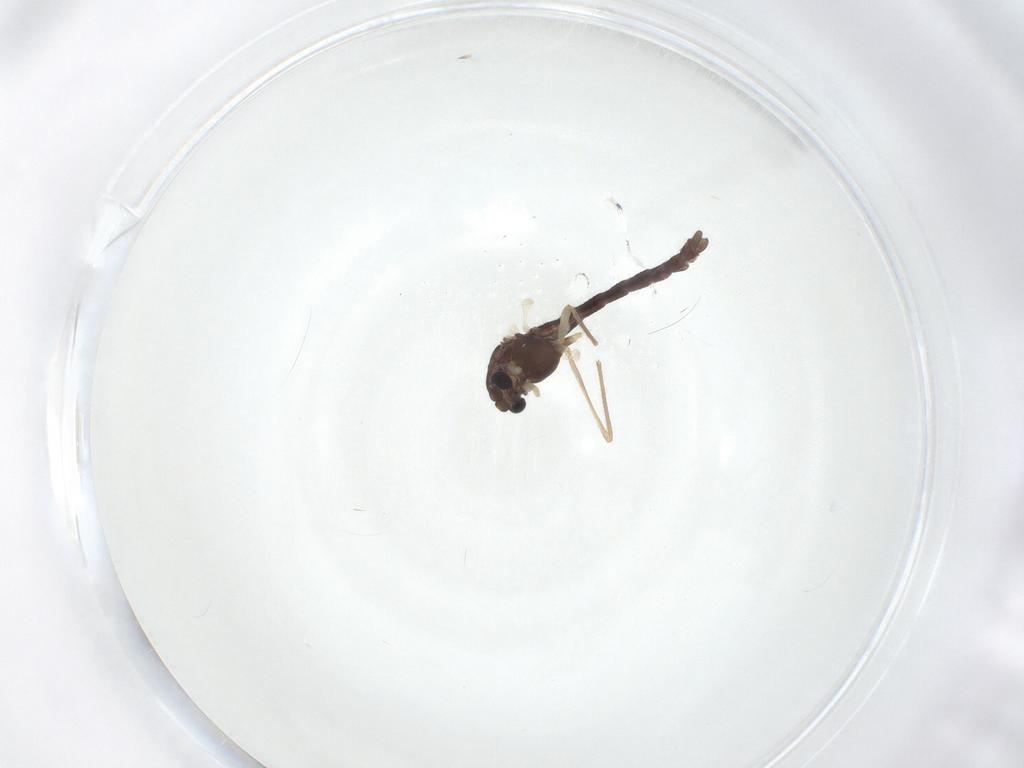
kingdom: Animalia
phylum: Arthropoda
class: Insecta
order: Diptera
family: Chironomidae
